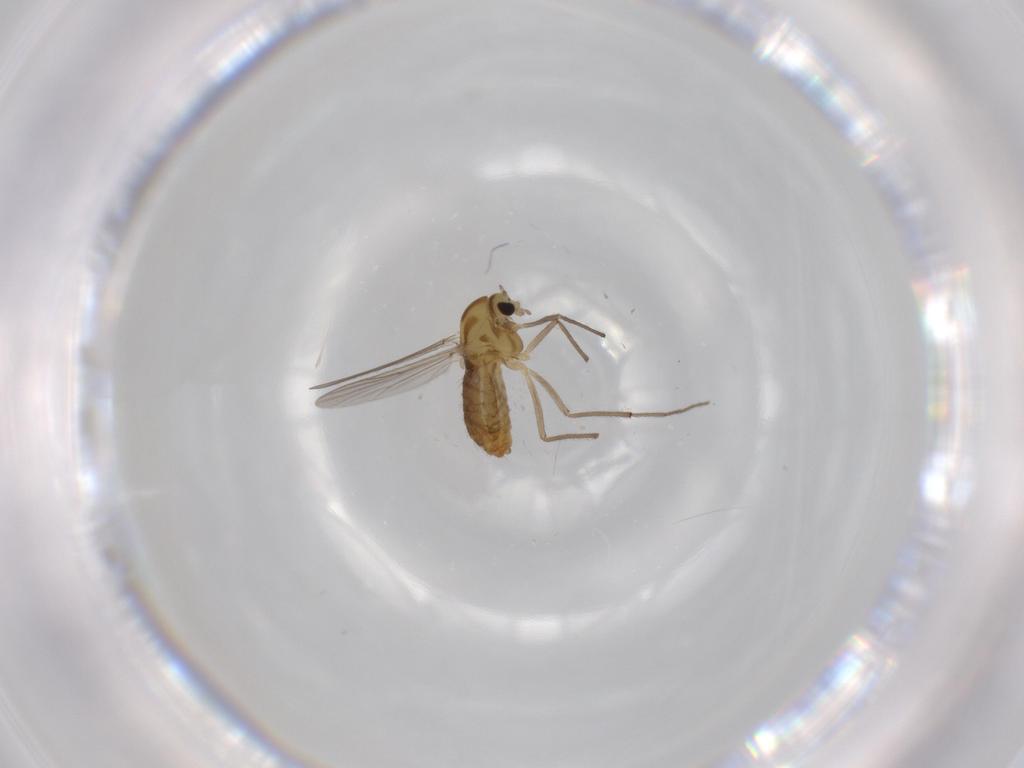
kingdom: Animalia
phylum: Arthropoda
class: Insecta
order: Diptera
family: Chironomidae
